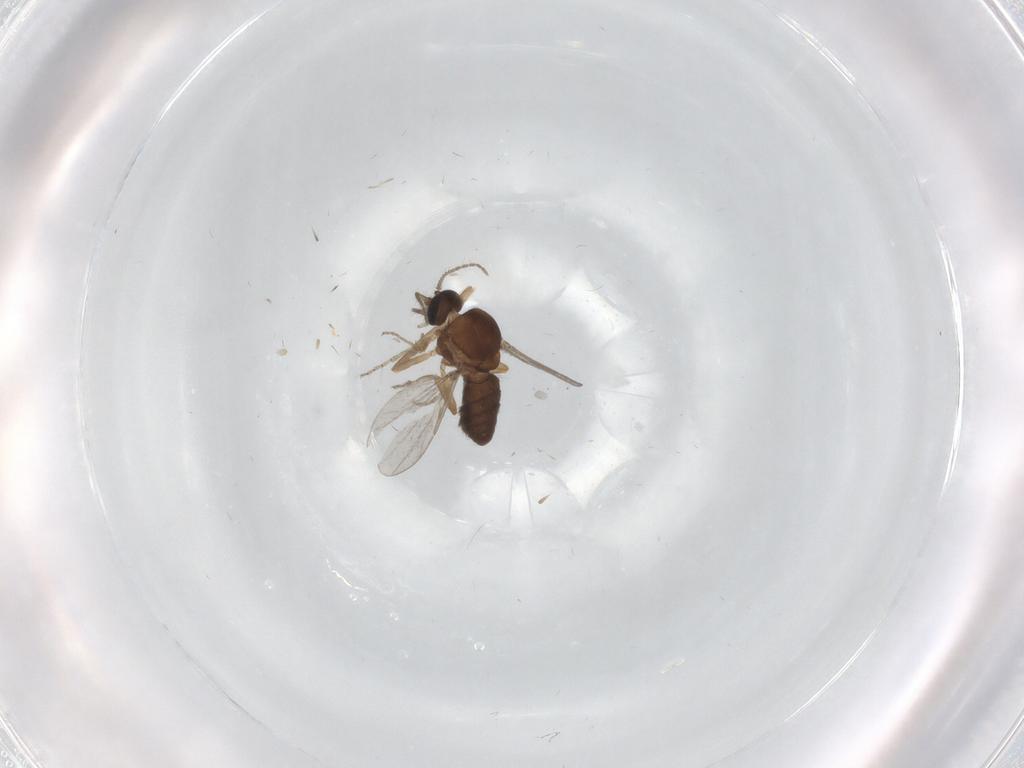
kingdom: Animalia
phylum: Arthropoda
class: Insecta
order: Diptera
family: Ceratopogonidae
